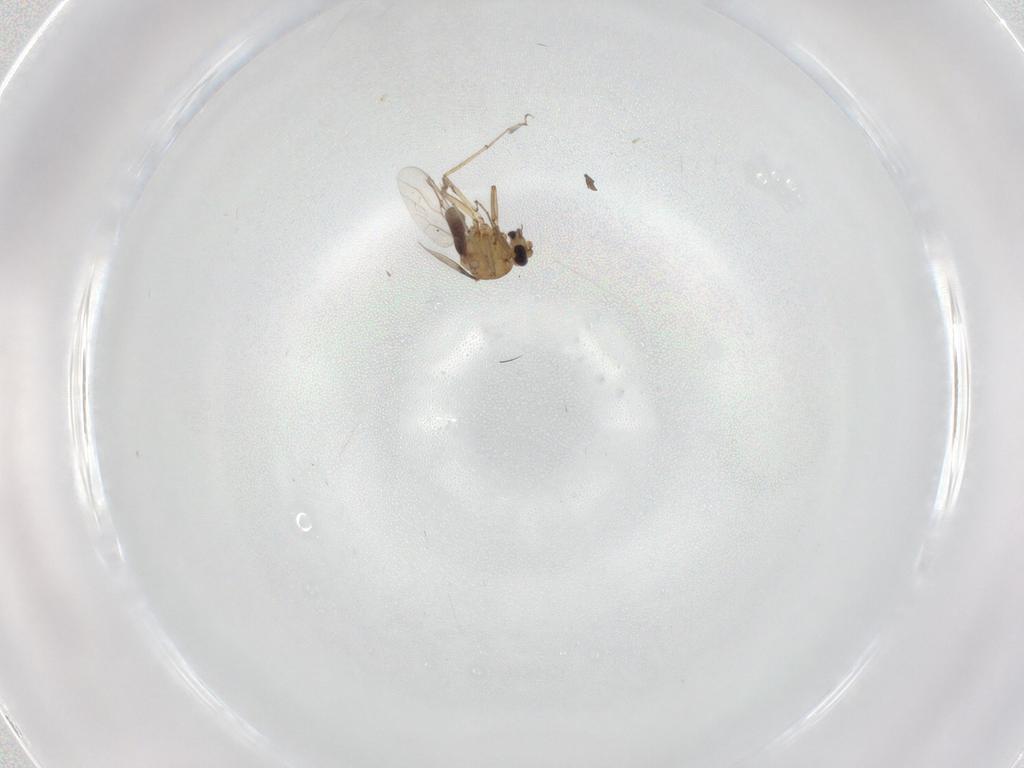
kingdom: Animalia
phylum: Arthropoda
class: Insecta
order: Diptera
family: Ceratopogonidae
